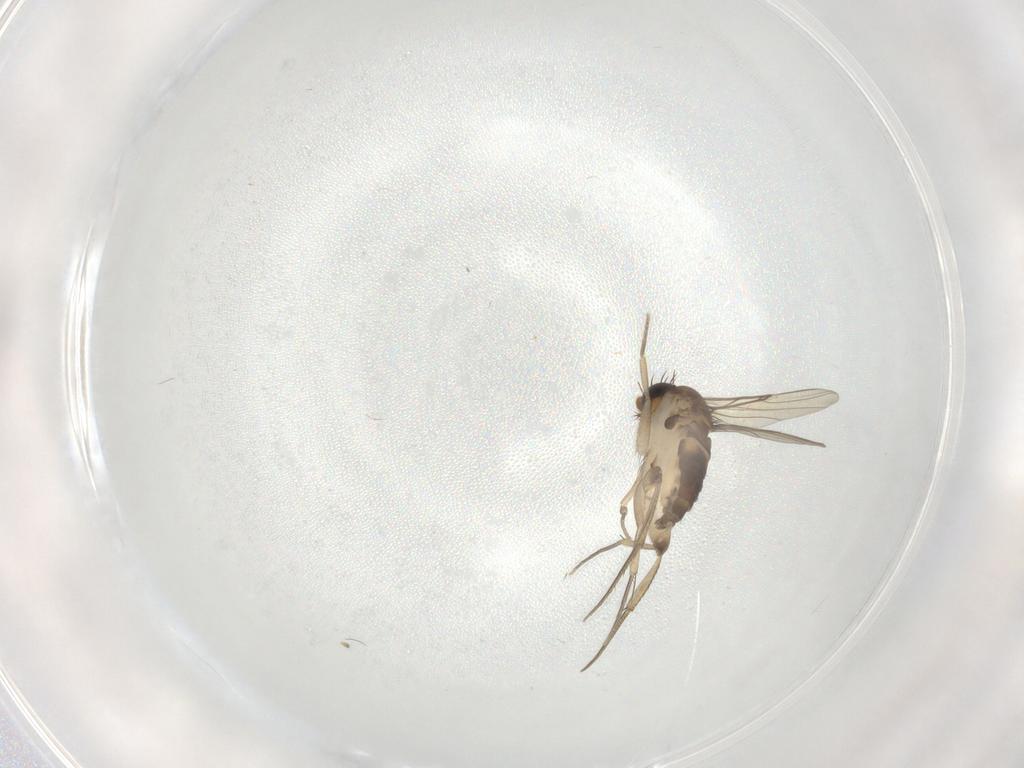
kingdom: Animalia
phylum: Arthropoda
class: Insecta
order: Diptera
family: Phoridae
